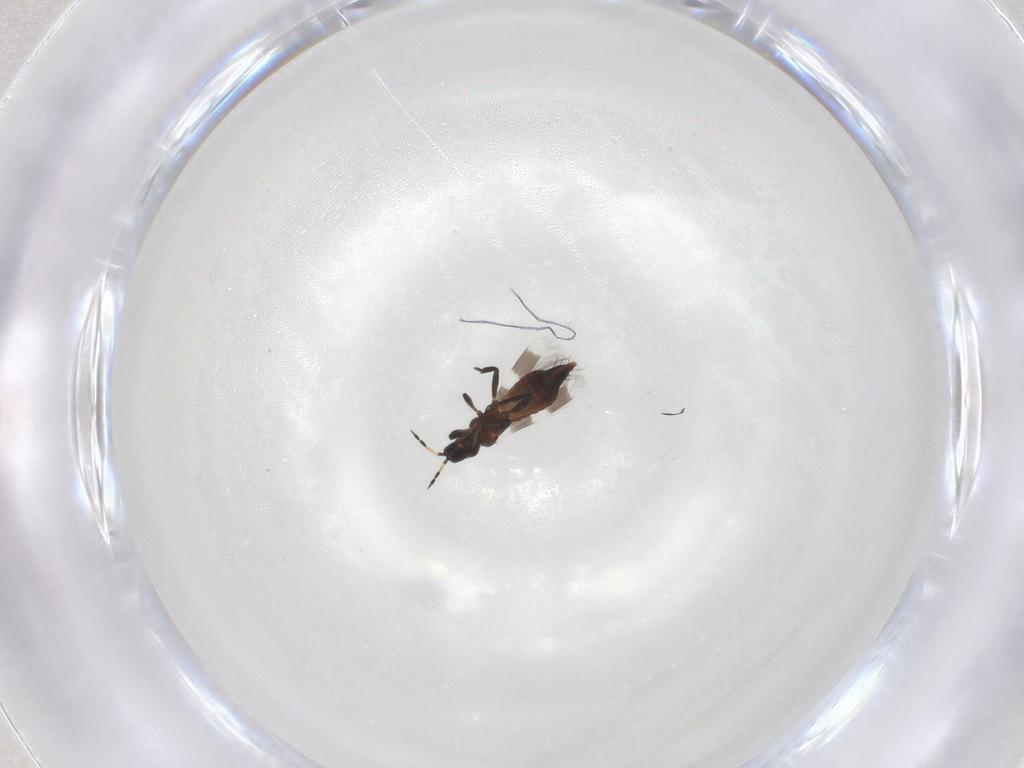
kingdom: Animalia
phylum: Arthropoda
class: Insecta
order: Thysanoptera
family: Aeolothripidae
